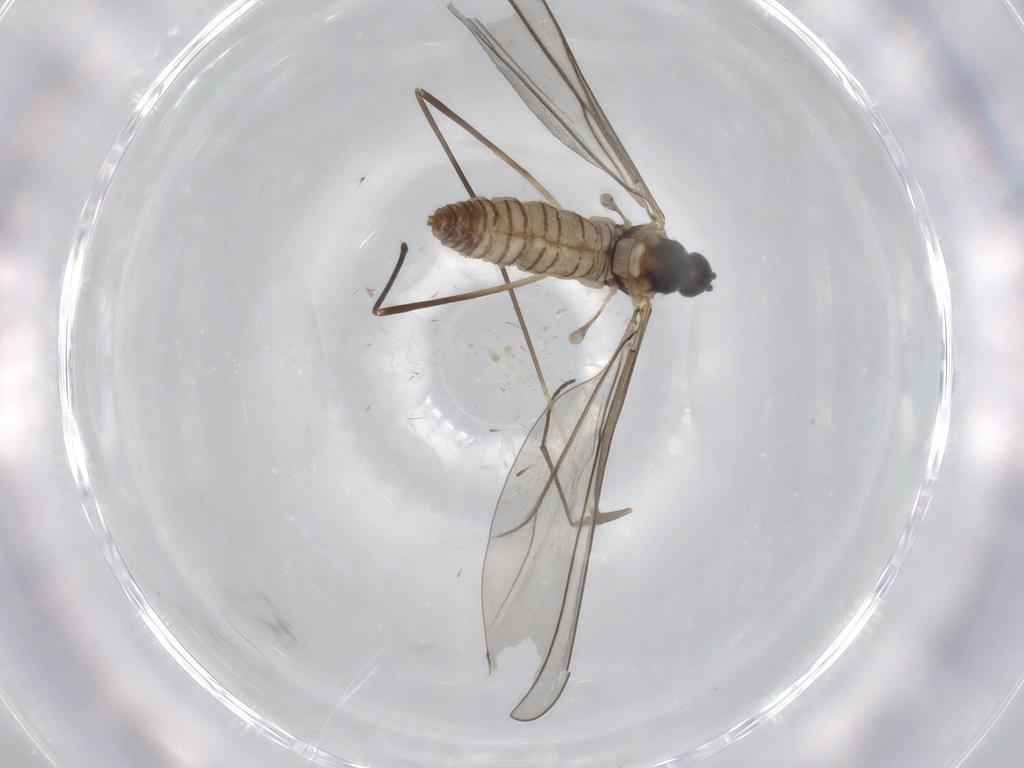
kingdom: Animalia
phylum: Arthropoda
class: Insecta
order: Diptera
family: Cecidomyiidae
